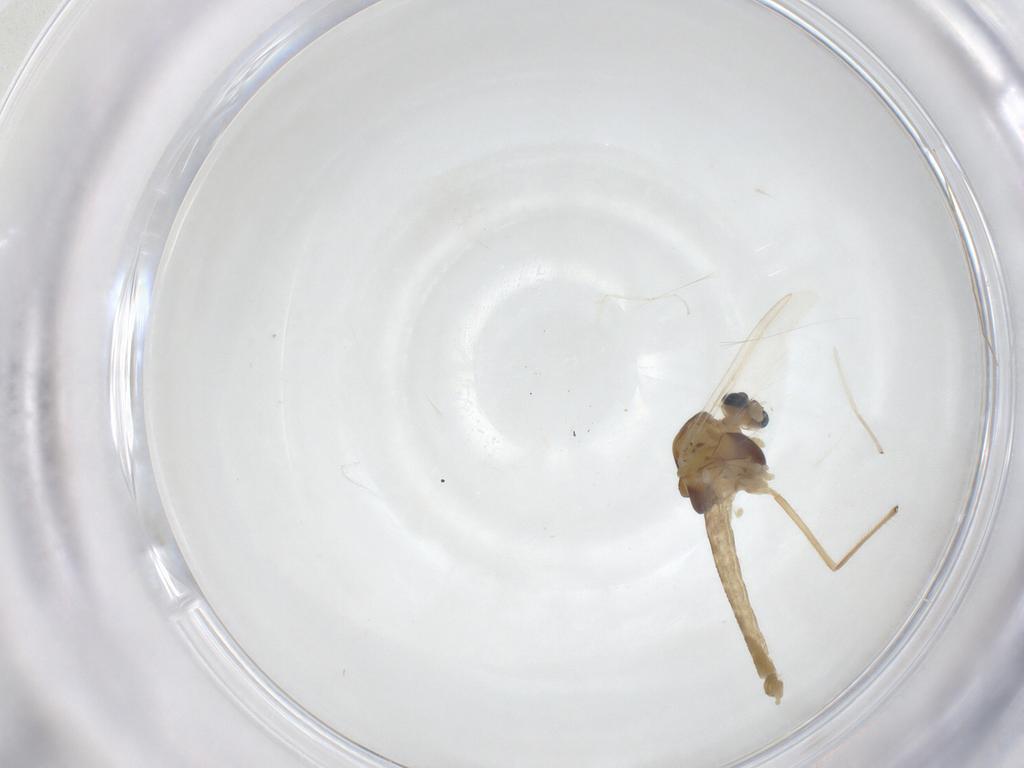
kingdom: Animalia
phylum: Arthropoda
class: Insecta
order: Diptera
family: Chironomidae
